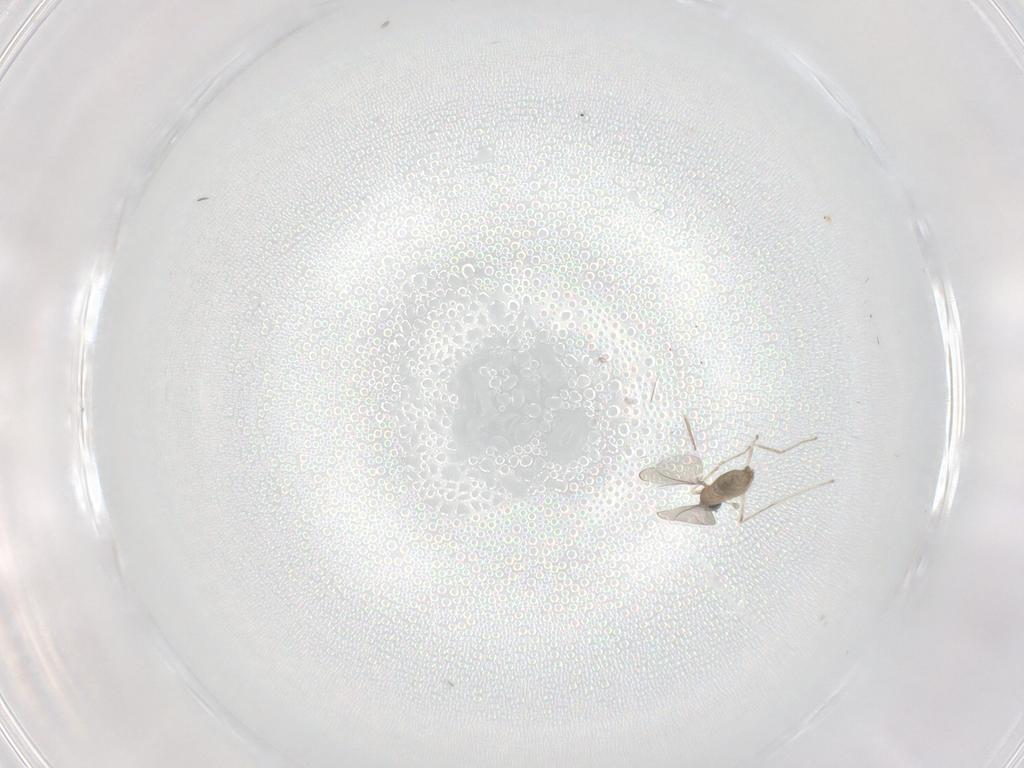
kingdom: Animalia
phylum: Arthropoda
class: Insecta
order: Diptera
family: Cecidomyiidae
